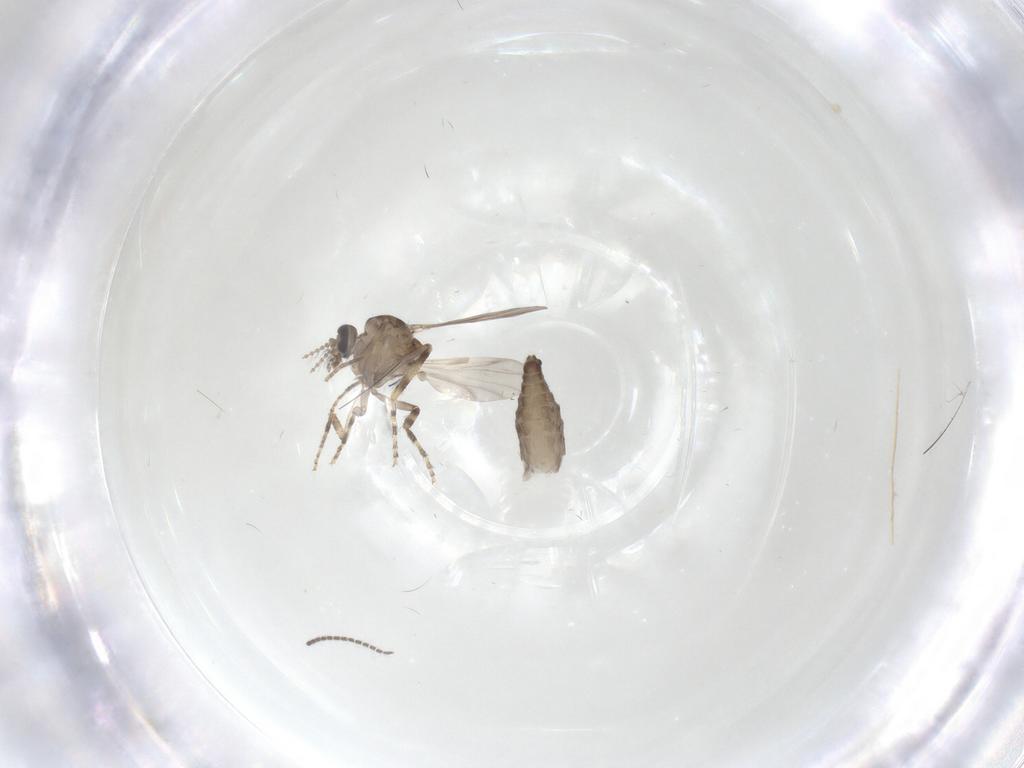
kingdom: Animalia
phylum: Arthropoda
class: Insecta
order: Diptera
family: Ceratopogonidae
